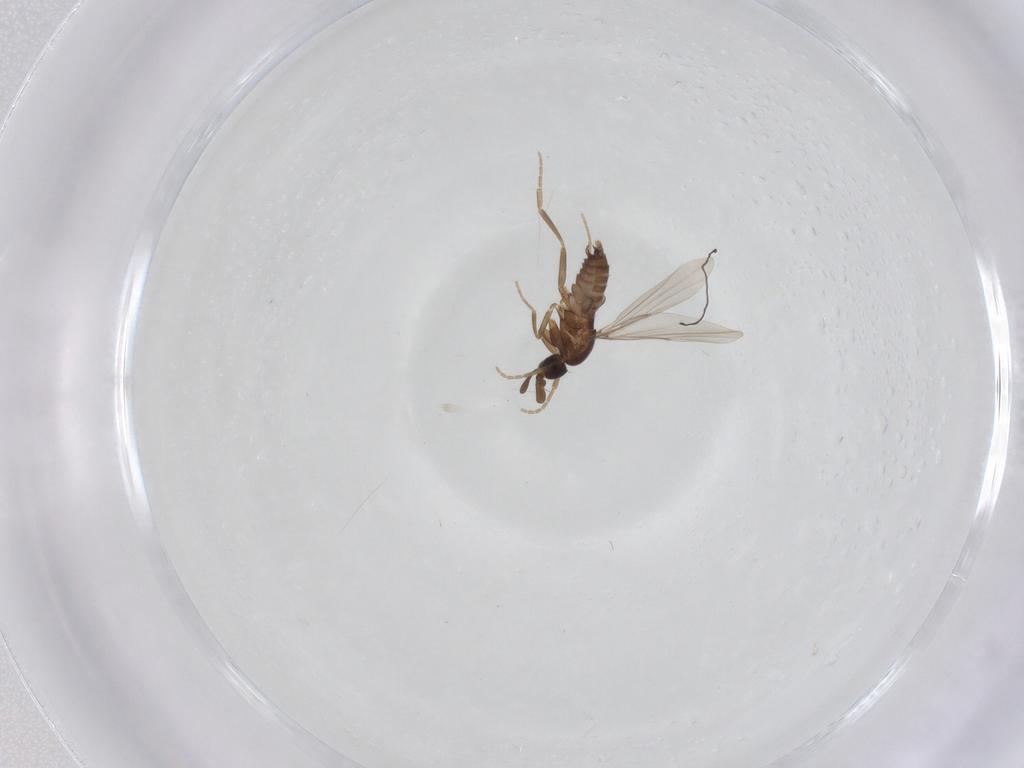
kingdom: Animalia
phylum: Arthropoda
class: Insecta
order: Diptera
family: Phoridae
